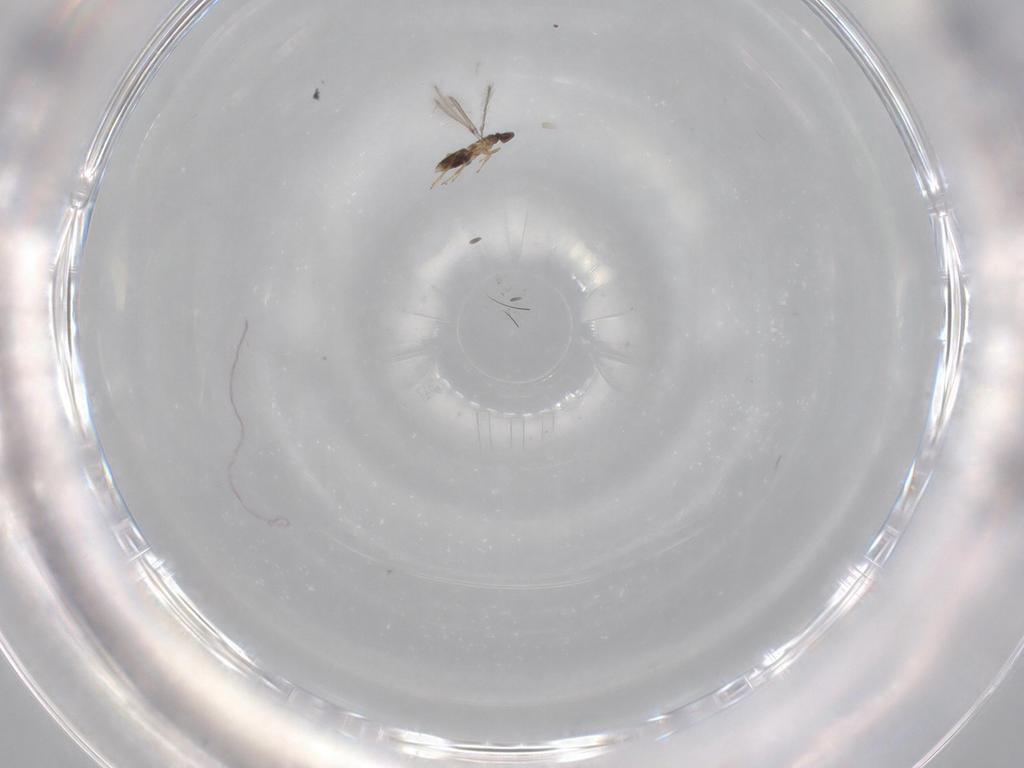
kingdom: Animalia
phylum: Arthropoda
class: Insecta
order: Hymenoptera
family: Mymaridae
